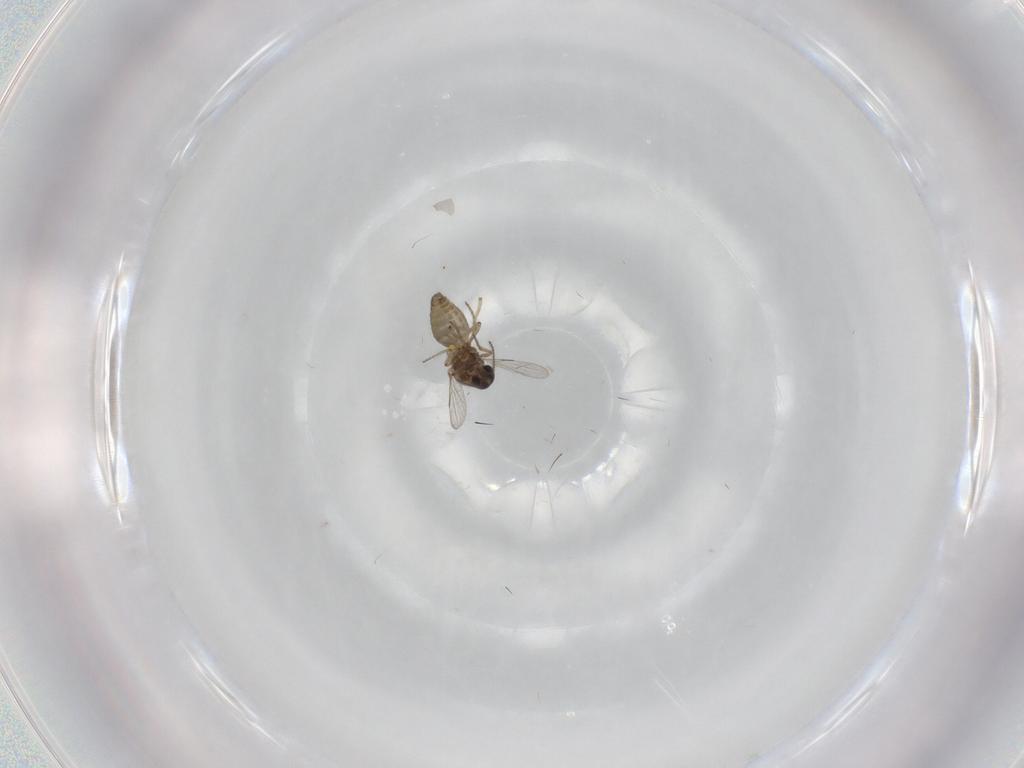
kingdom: Animalia
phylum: Arthropoda
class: Insecta
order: Diptera
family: Ceratopogonidae
